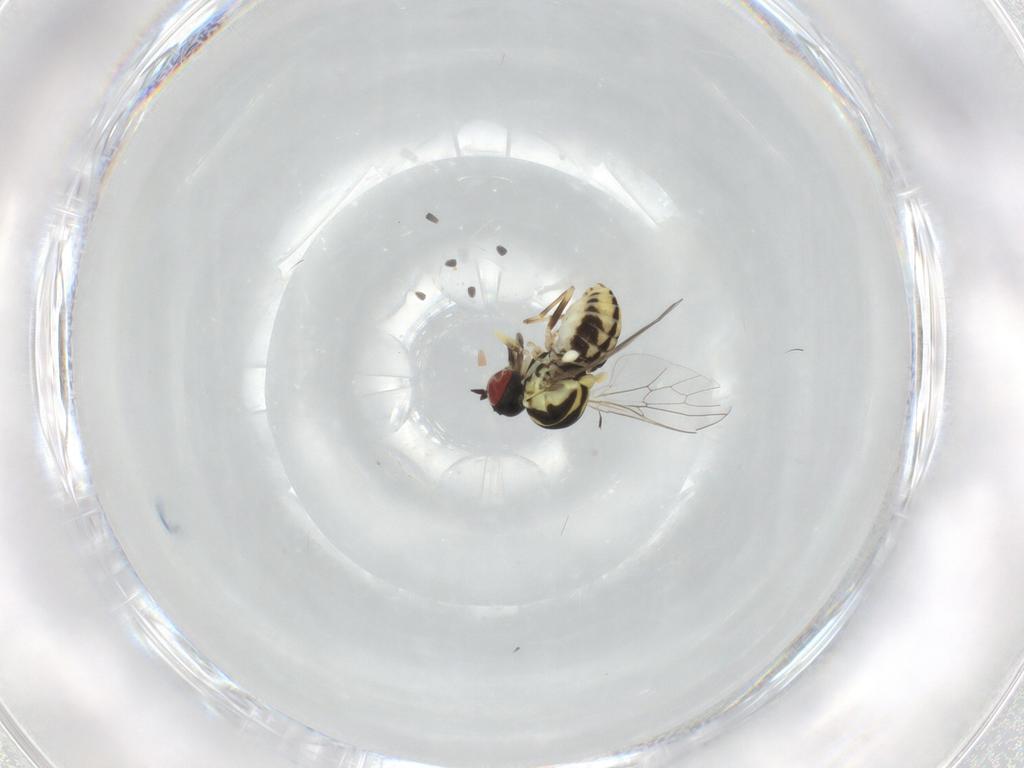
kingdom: Animalia
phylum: Arthropoda
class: Insecta
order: Diptera
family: Bombyliidae
